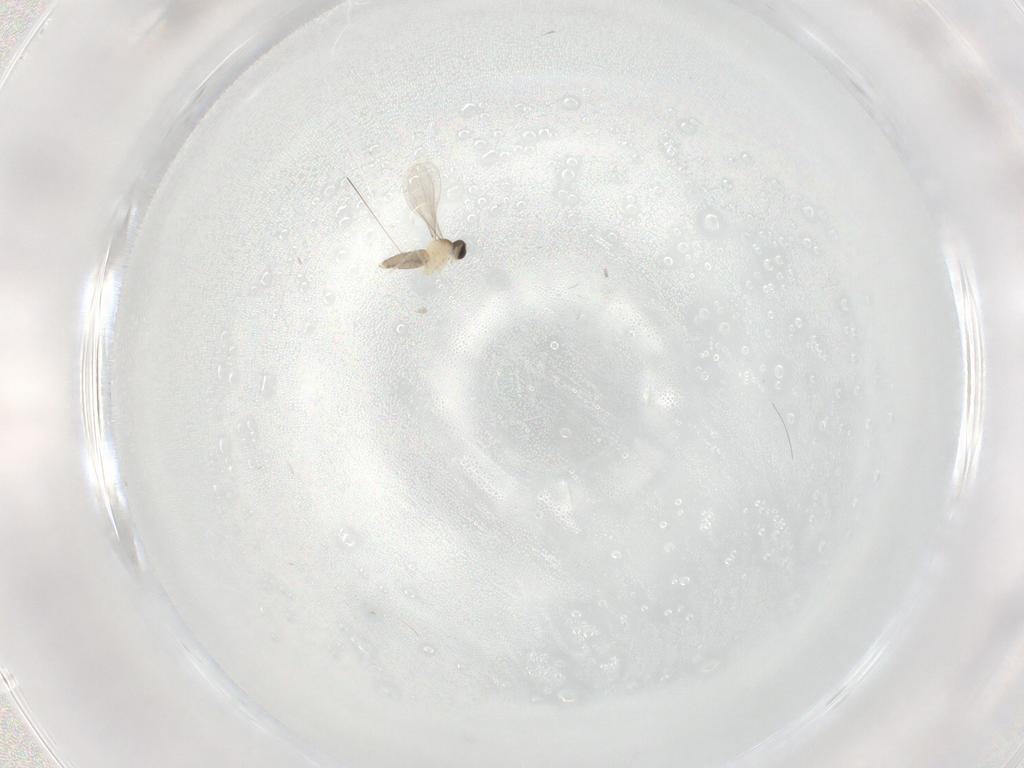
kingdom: Animalia
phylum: Arthropoda
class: Insecta
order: Diptera
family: Cecidomyiidae
